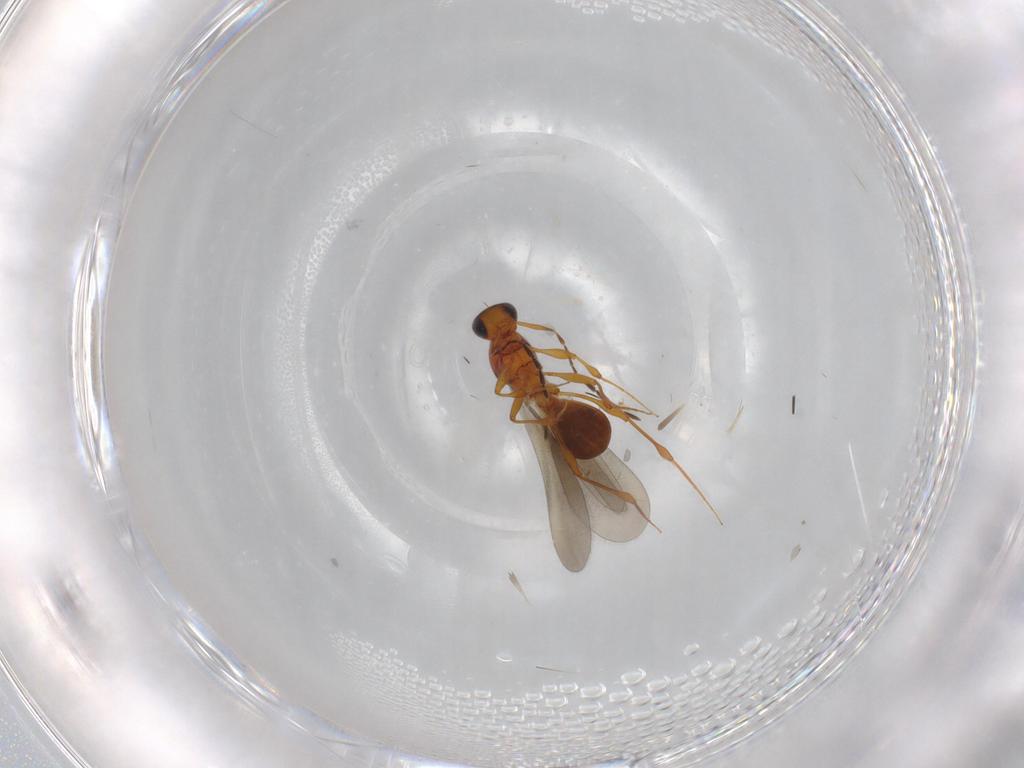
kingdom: Animalia
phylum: Arthropoda
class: Insecta
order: Hymenoptera
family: Platygastridae
